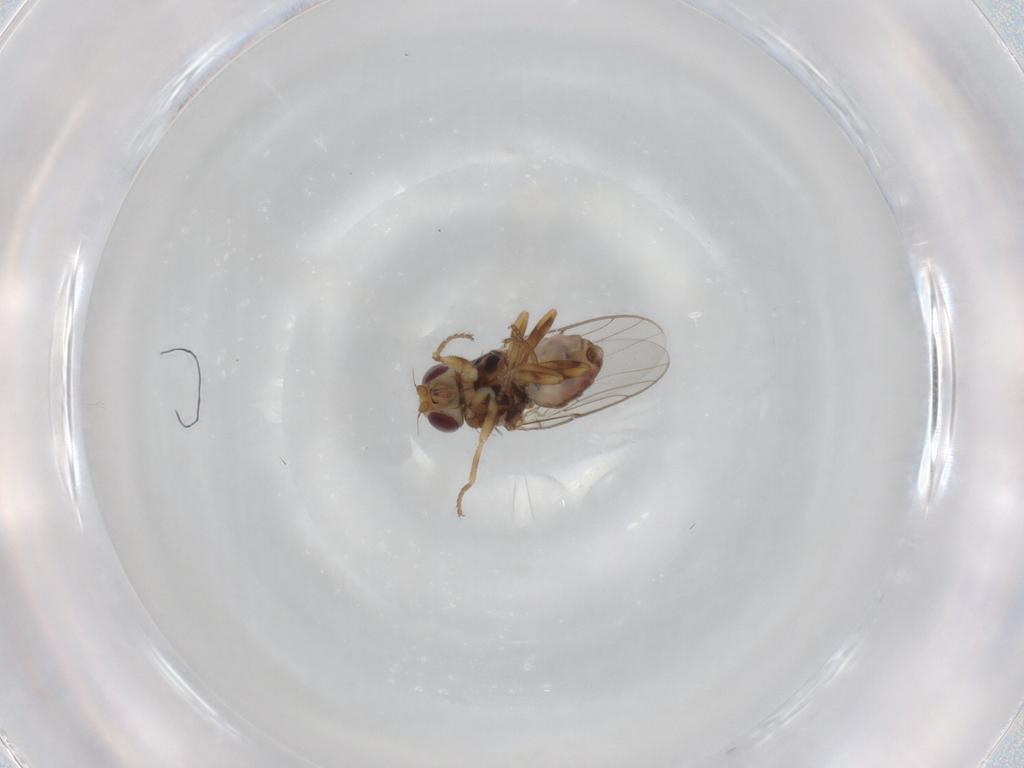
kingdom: Animalia
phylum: Arthropoda
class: Insecta
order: Diptera
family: Chloropidae
